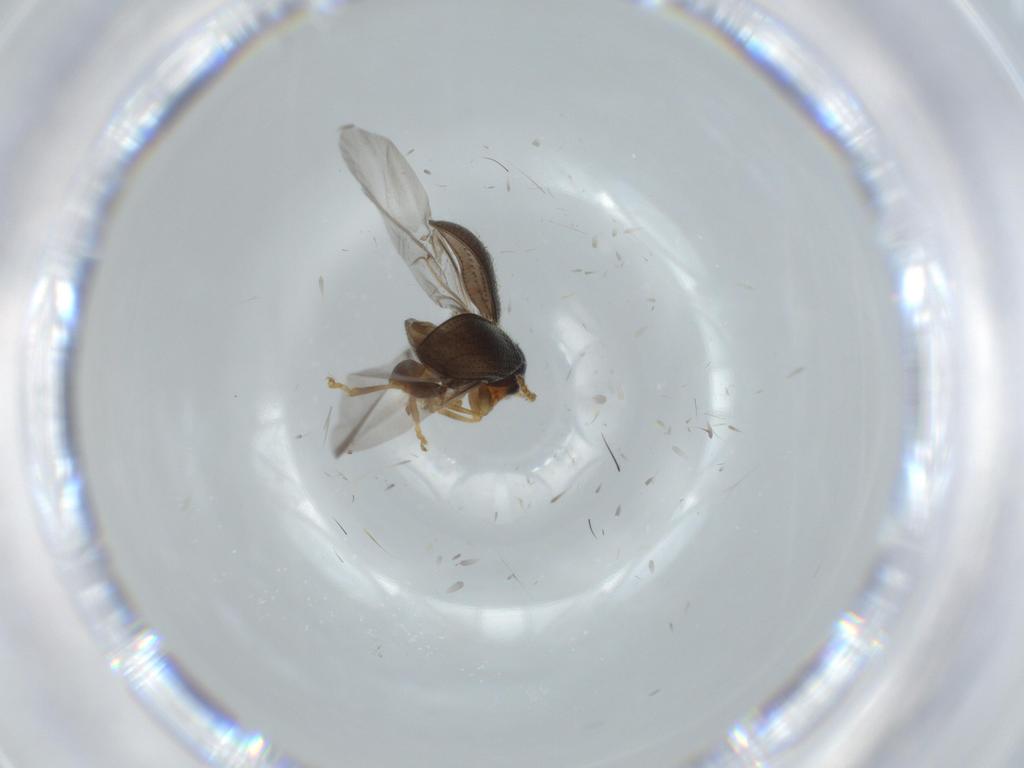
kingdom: Animalia
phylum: Arthropoda
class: Insecta
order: Coleoptera
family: Chrysomelidae
